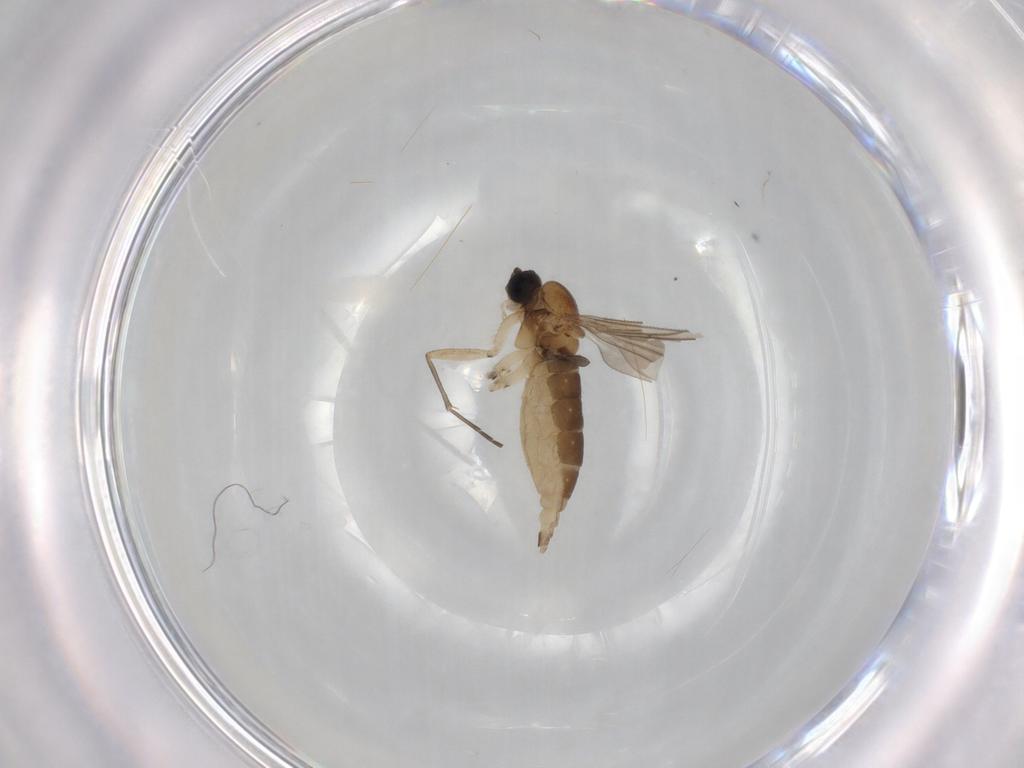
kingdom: Animalia
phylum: Arthropoda
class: Insecta
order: Diptera
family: Sciaridae
